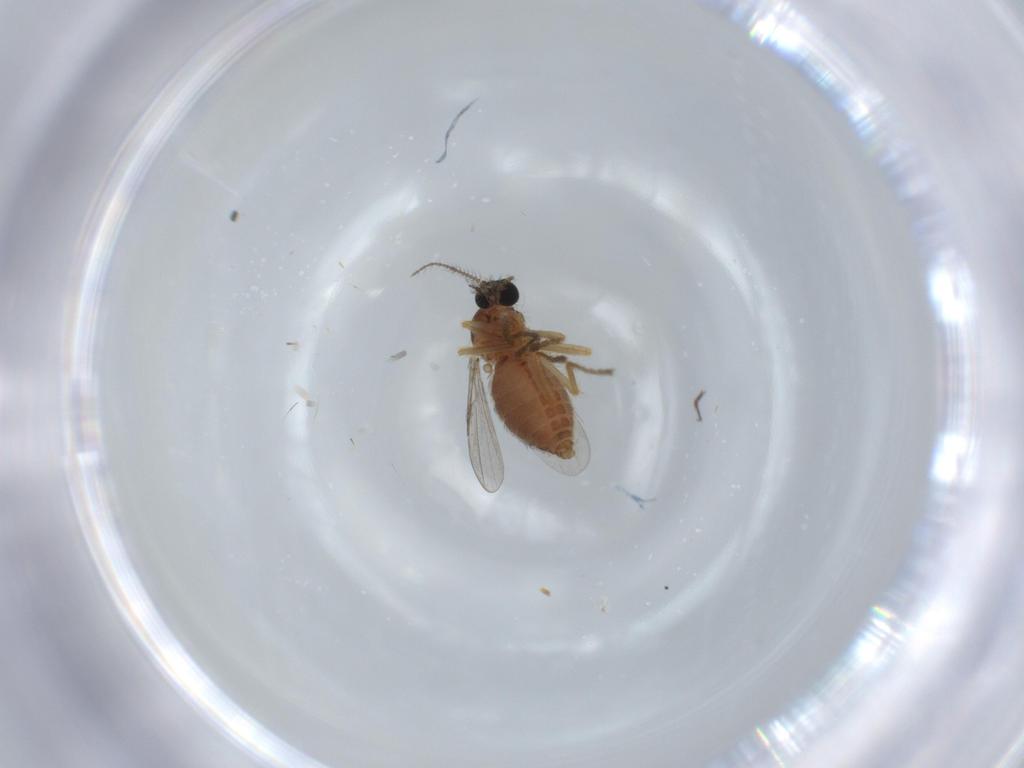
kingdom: Animalia
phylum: Arthropoda
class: Insecta
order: Diptera
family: Ceratopogonidae
